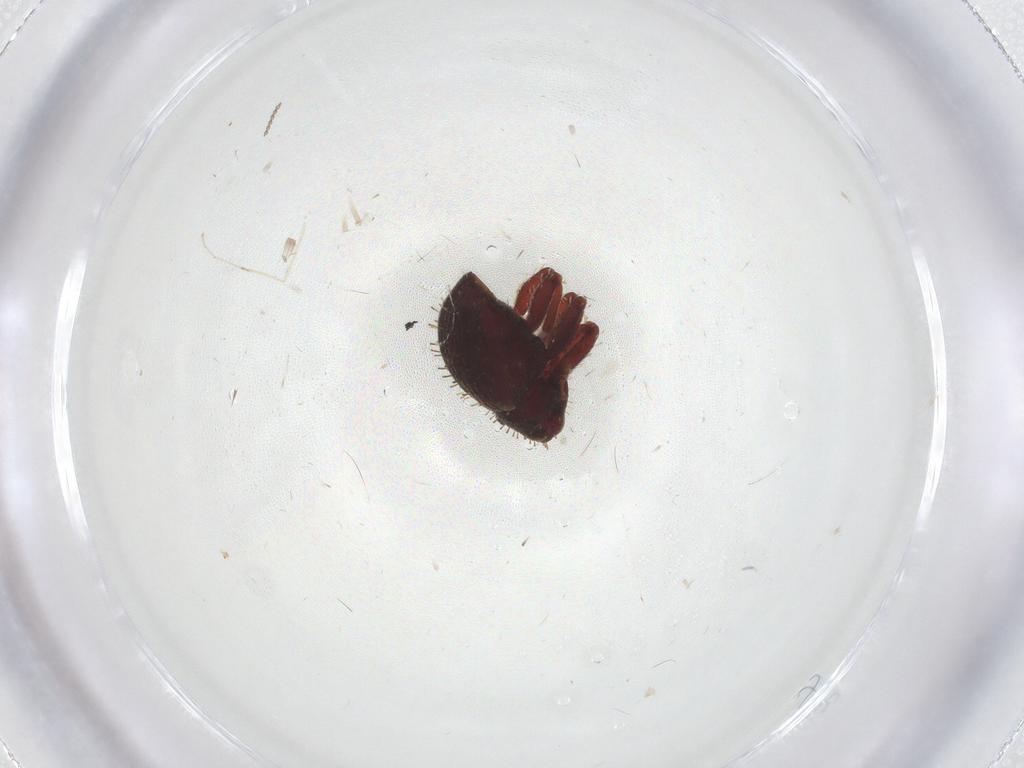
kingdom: Animalia
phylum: Arthropoda
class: Insecta
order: Coleoptera
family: Curculionidae
